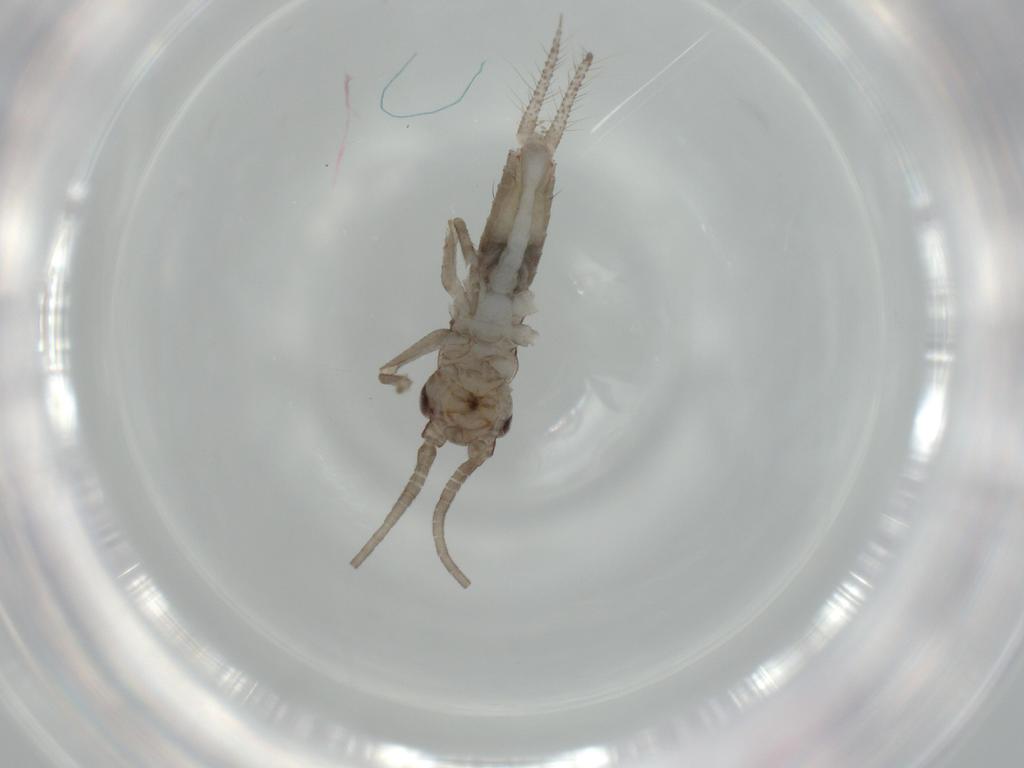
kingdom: Animalia
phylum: Arthropoda
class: Insecta
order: Orthoptera
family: Gryllidae
